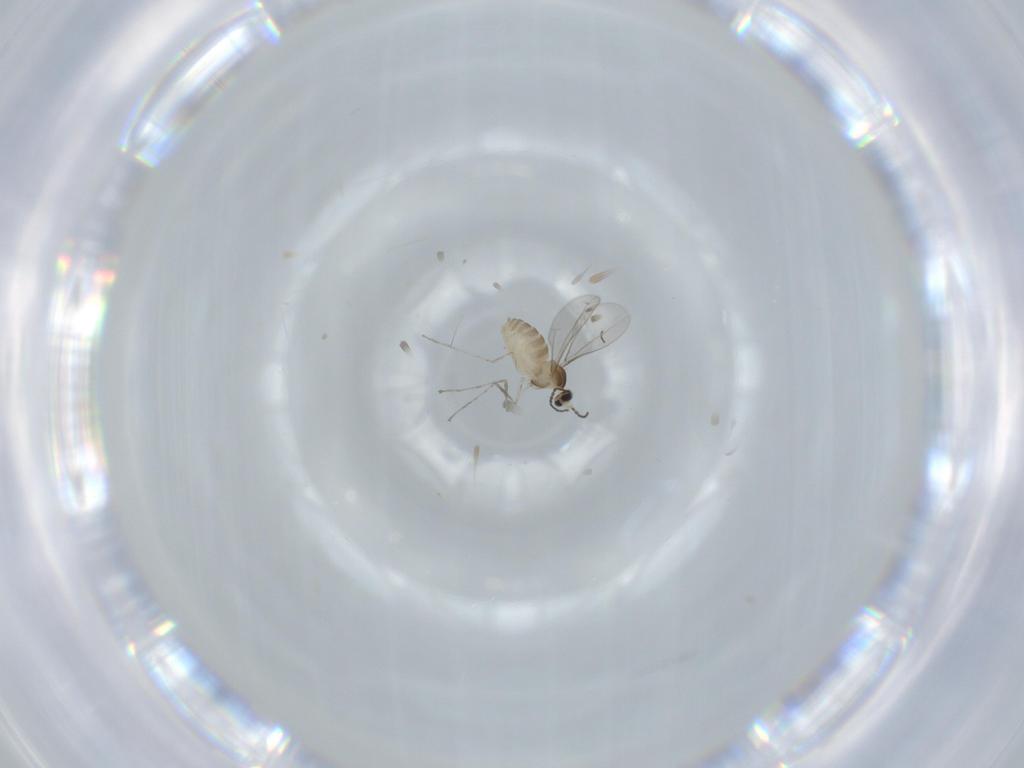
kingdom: Animalia
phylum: Arthropoda
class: Insecta
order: Diptera
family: Cecidomyiidae
